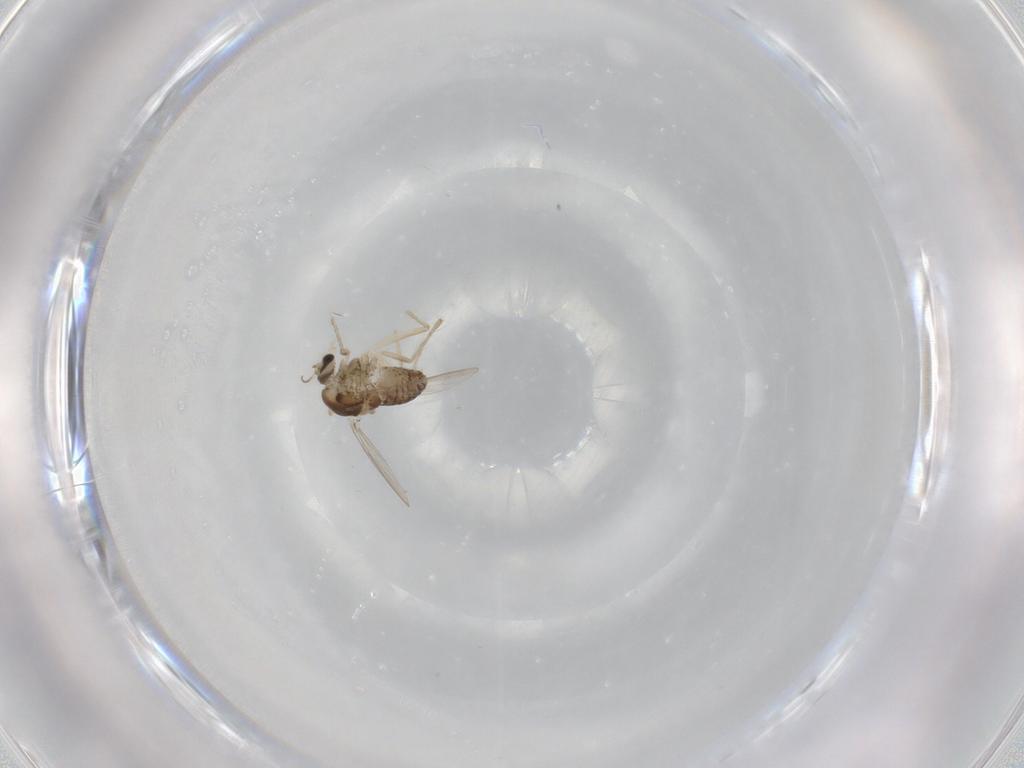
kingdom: Animalia
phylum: Arthropoda
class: Insecta
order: Diptera
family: Chironomidae
